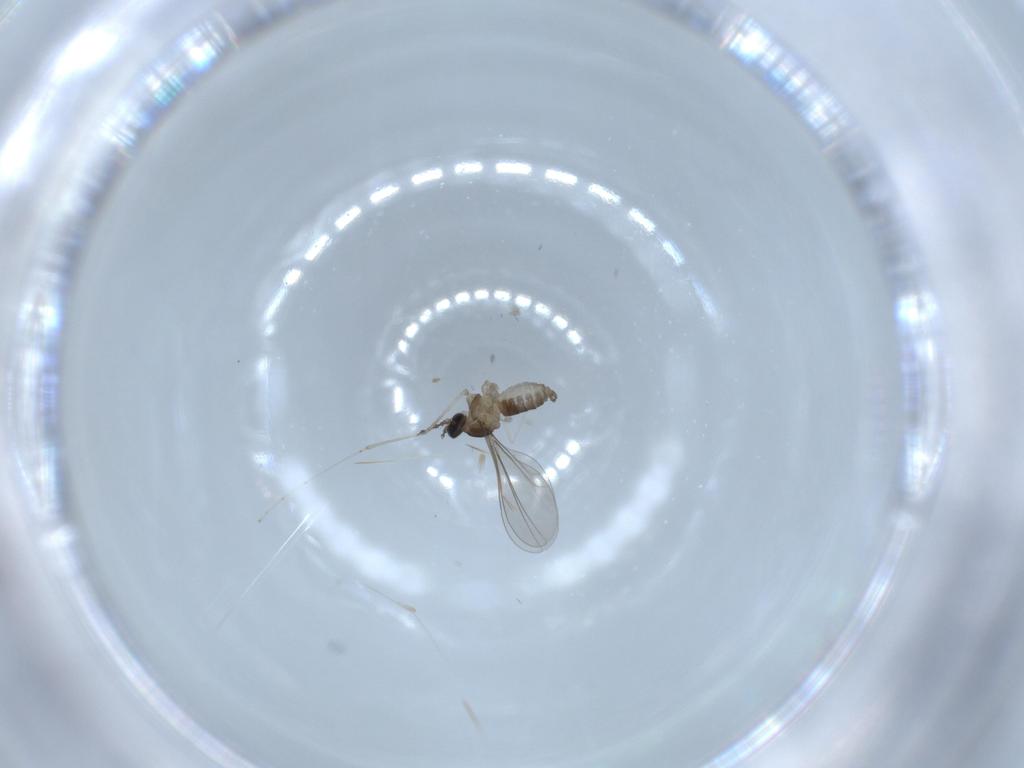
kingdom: Animalia
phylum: Arthropoda
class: Insecta
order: Diptera
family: Cecidomyiidae
